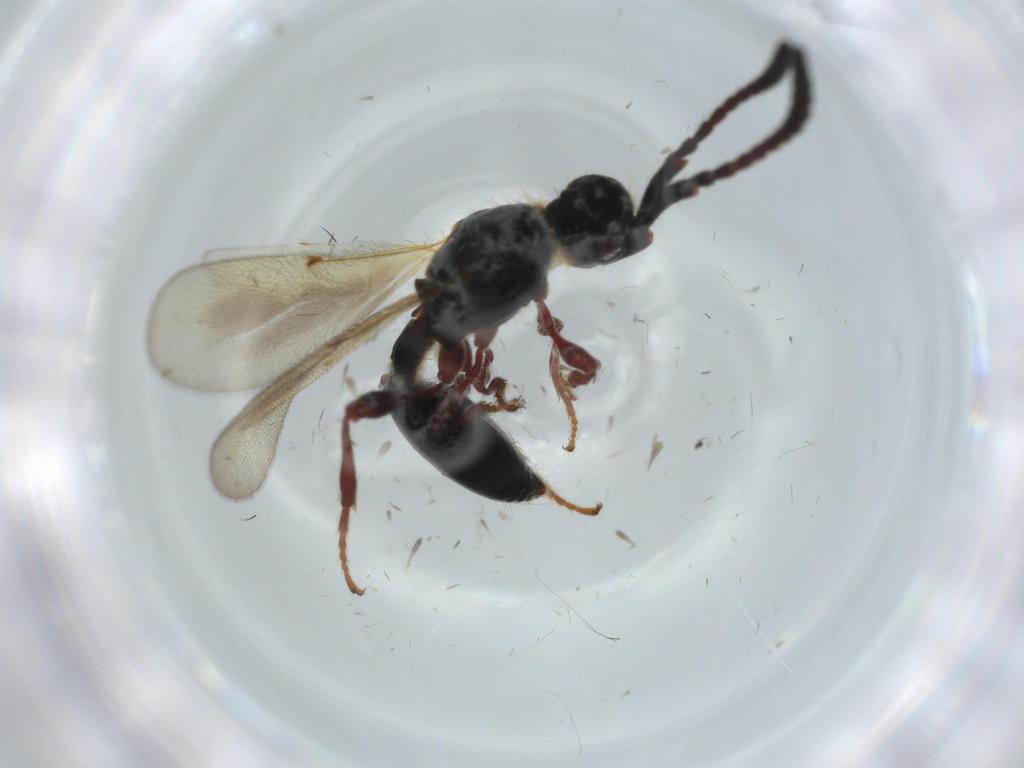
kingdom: Animalia
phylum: Arthropoda
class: Insecta
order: Hymenoptera
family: Diapriidae
